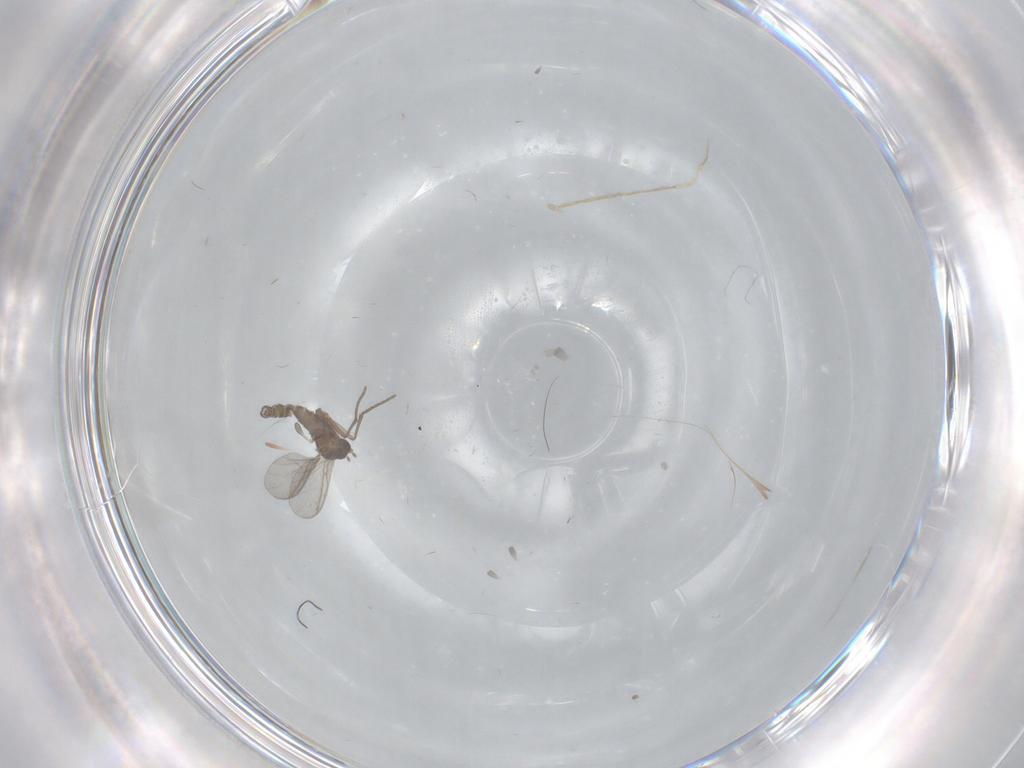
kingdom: Animalia
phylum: Arthropoda
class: Insecta
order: Diptera
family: Sciaridae
